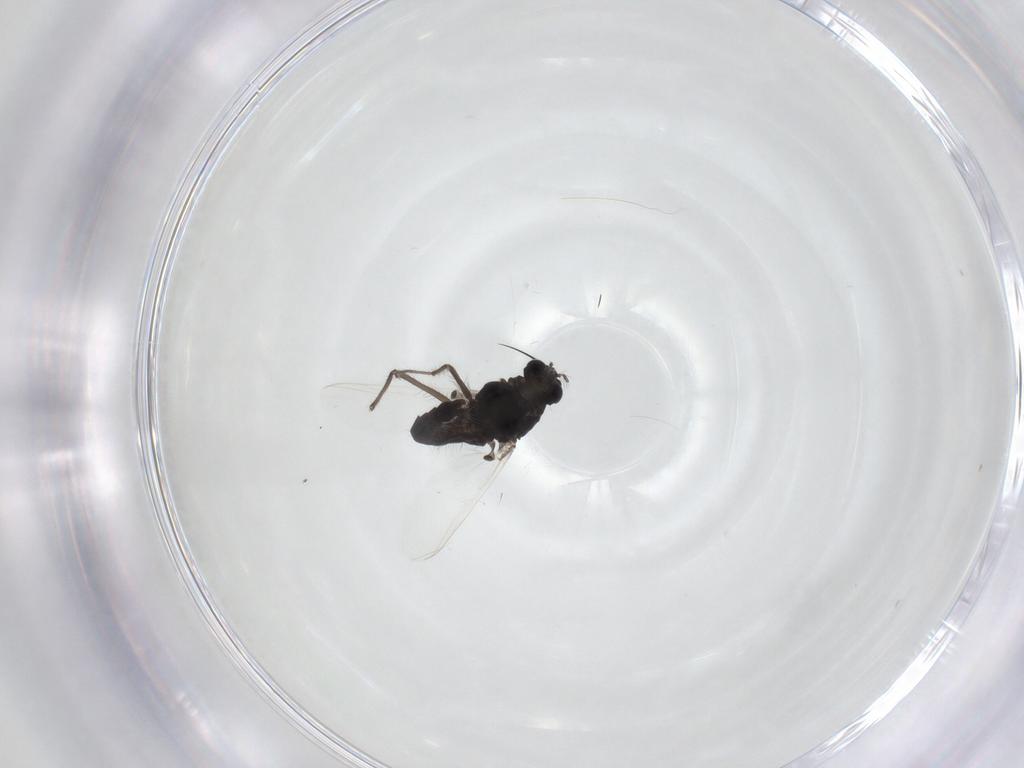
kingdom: Animalia
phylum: Arthropoda
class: Insecta
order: Diptera
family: Chironomidae
